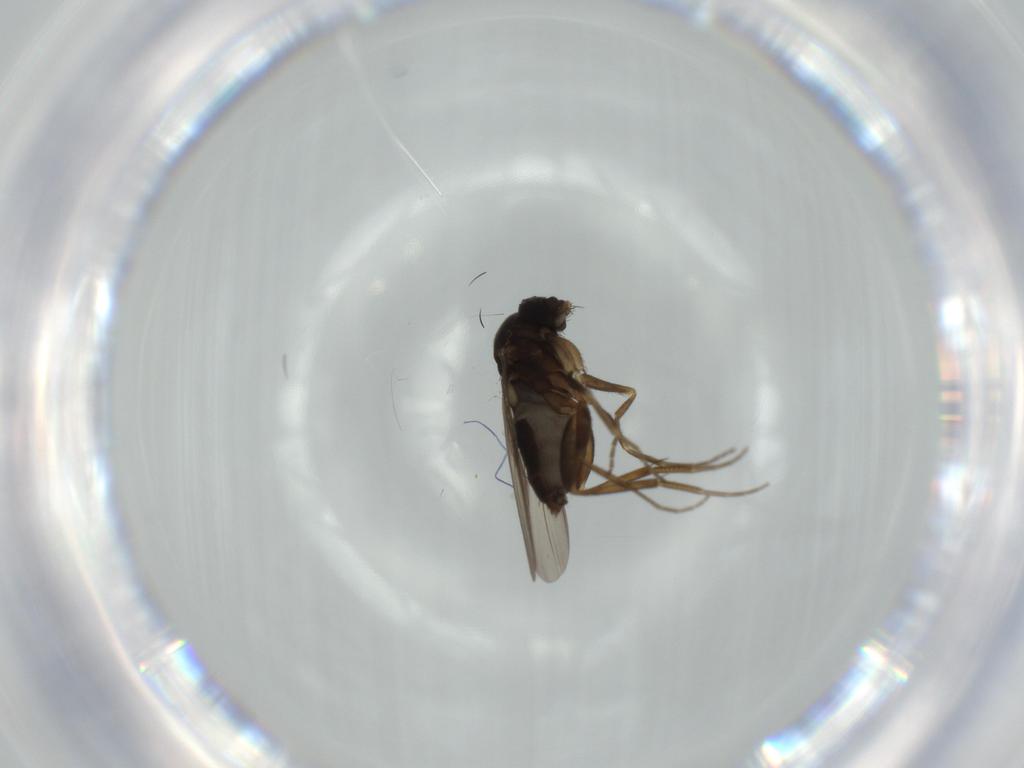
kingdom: Animalia
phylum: Arthropoda
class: Insecta
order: Diptera
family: Phoridae
